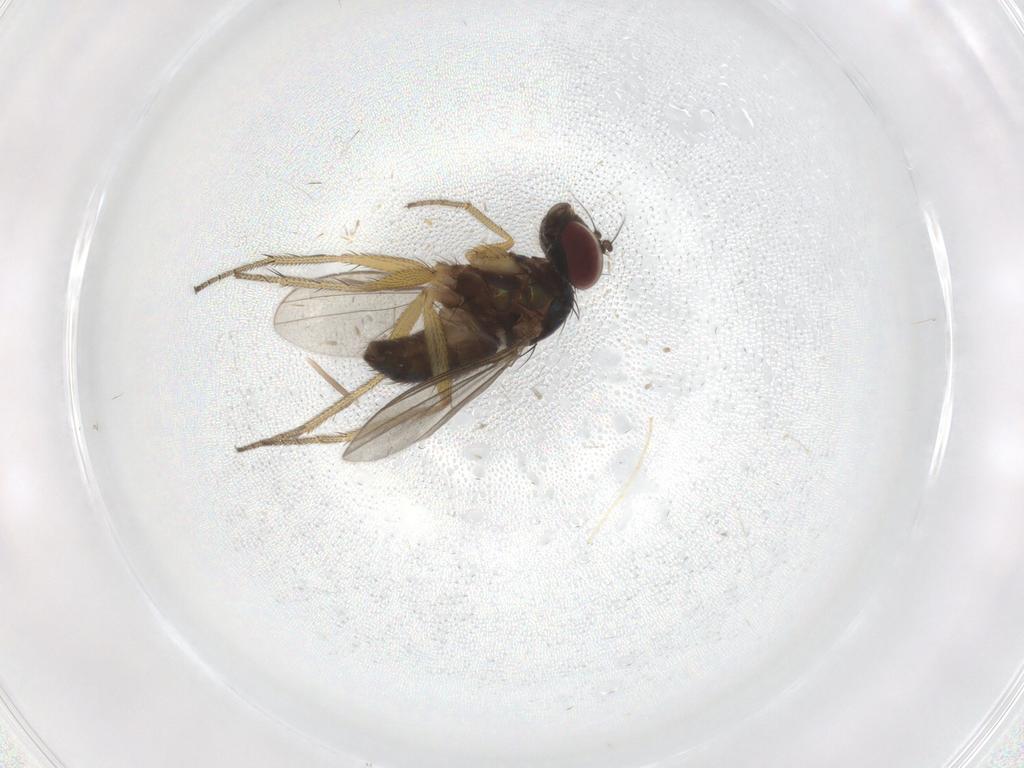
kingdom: Animalia
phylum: Arthropoda
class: Insecta
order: Diptera
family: Dolichopodidae
